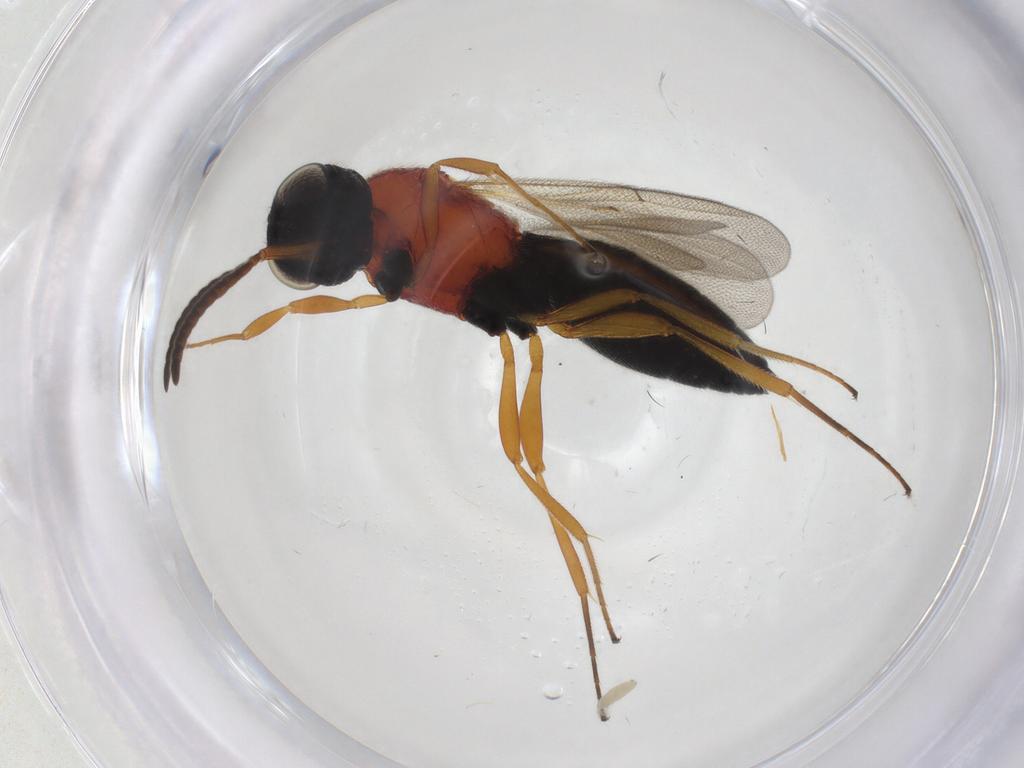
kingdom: Animalia
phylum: Arthropoda
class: Insecta
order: Hymenoptera
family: Scelionidae
